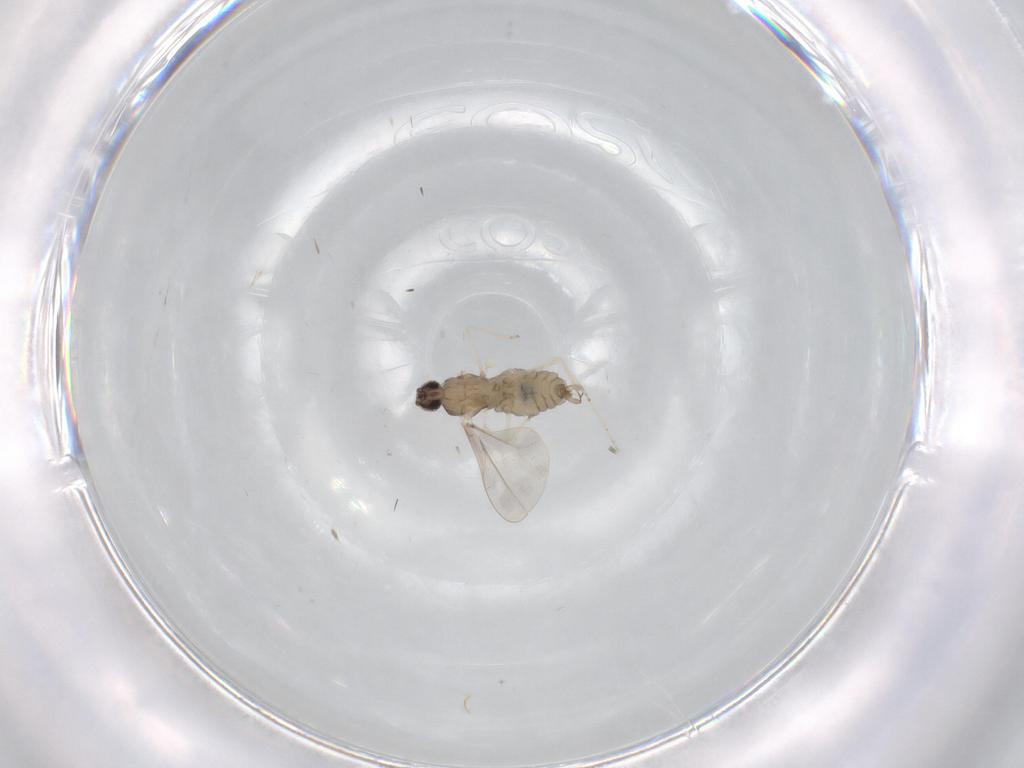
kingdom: Animalia
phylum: Arthropoda
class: Insecta
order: Diptera
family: Cecidomyiidae
